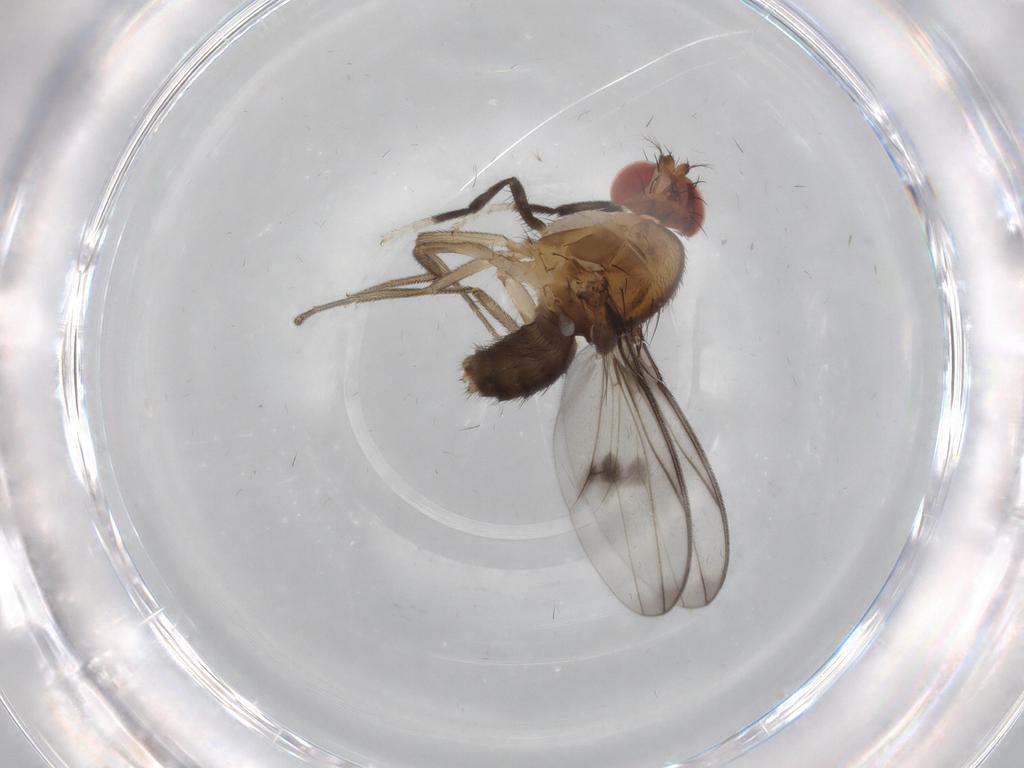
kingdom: Animalia
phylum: Arthropoda
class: Insecta
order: Diptera
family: Drosophilidae
